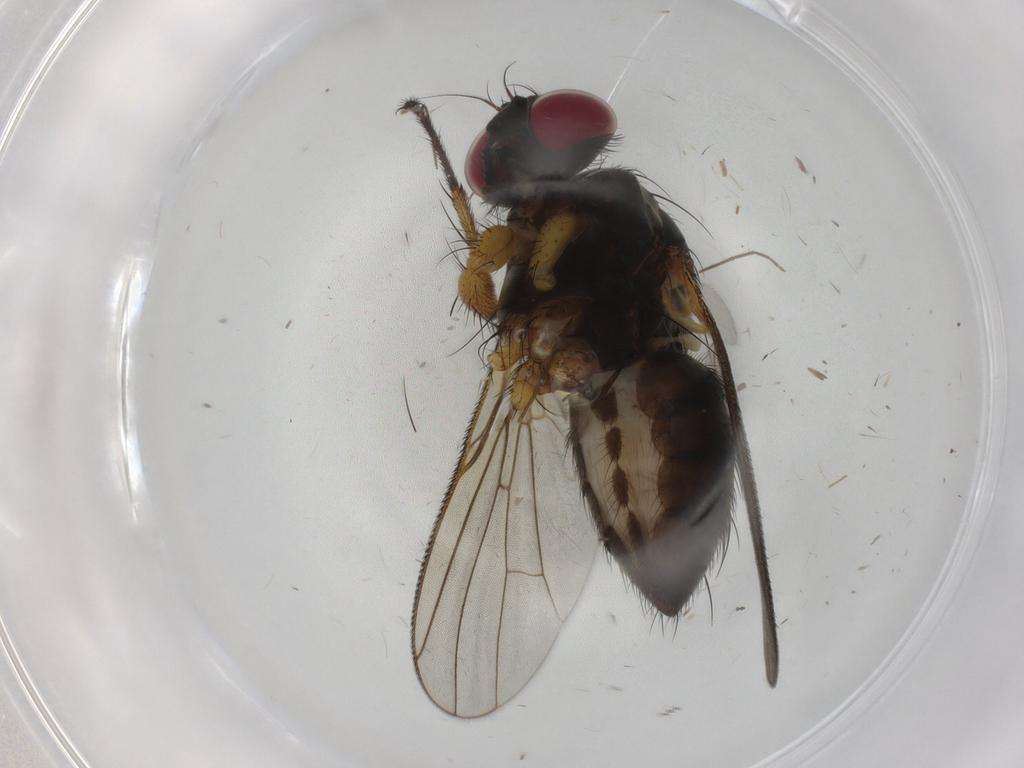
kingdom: Animalia
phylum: Arthropoda
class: Insecta
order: Diptera
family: Muscidae
